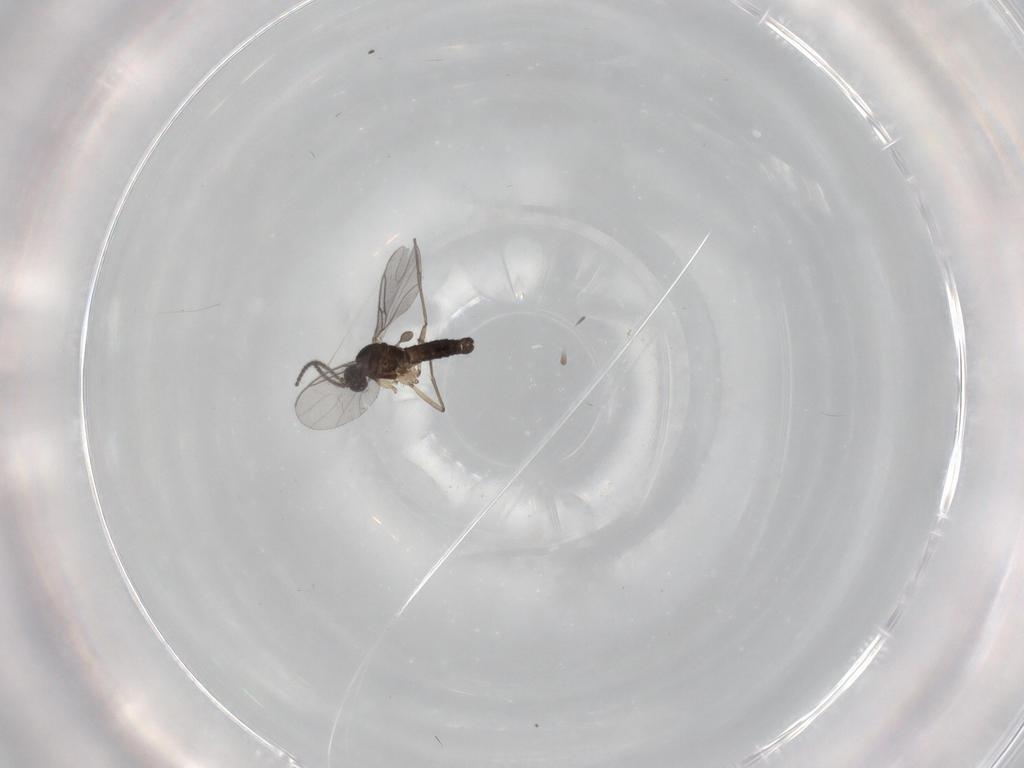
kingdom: Animalia
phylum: Arthropoda
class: Insecta
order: Diptera
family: Sciaridae
